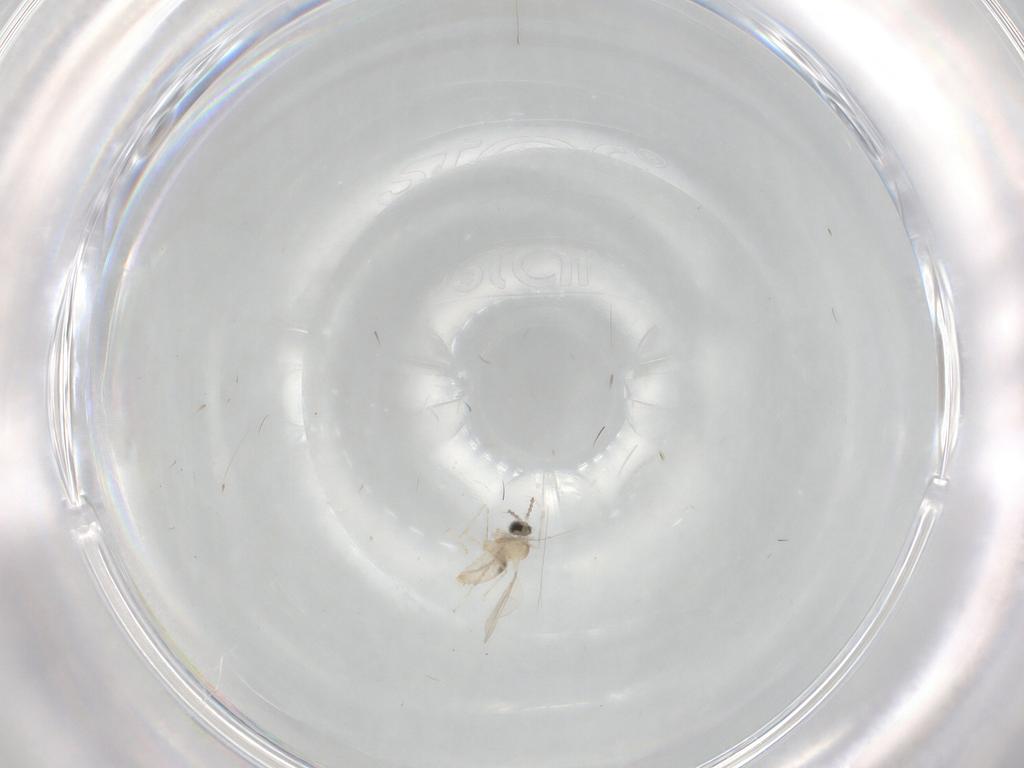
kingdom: Animalia
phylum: Arthropoda
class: Insecta
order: Diptera
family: Cecidomyiidae
